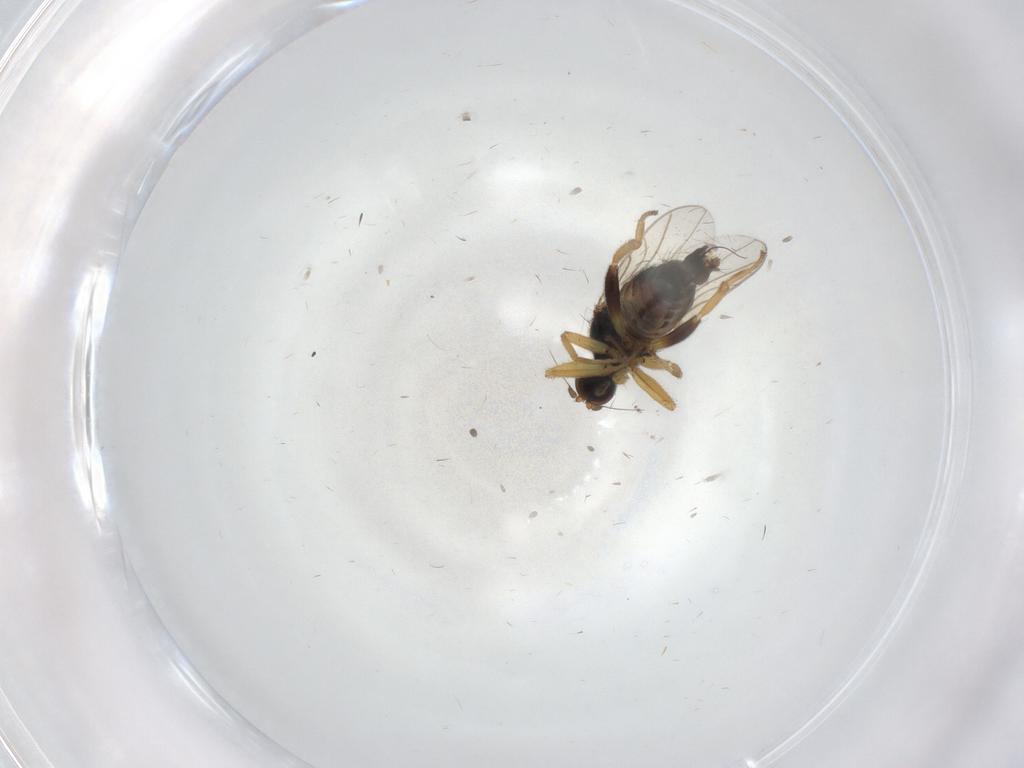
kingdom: Animalia
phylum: Arthropoda
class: Insecta
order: Diptera
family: Hybotidae
